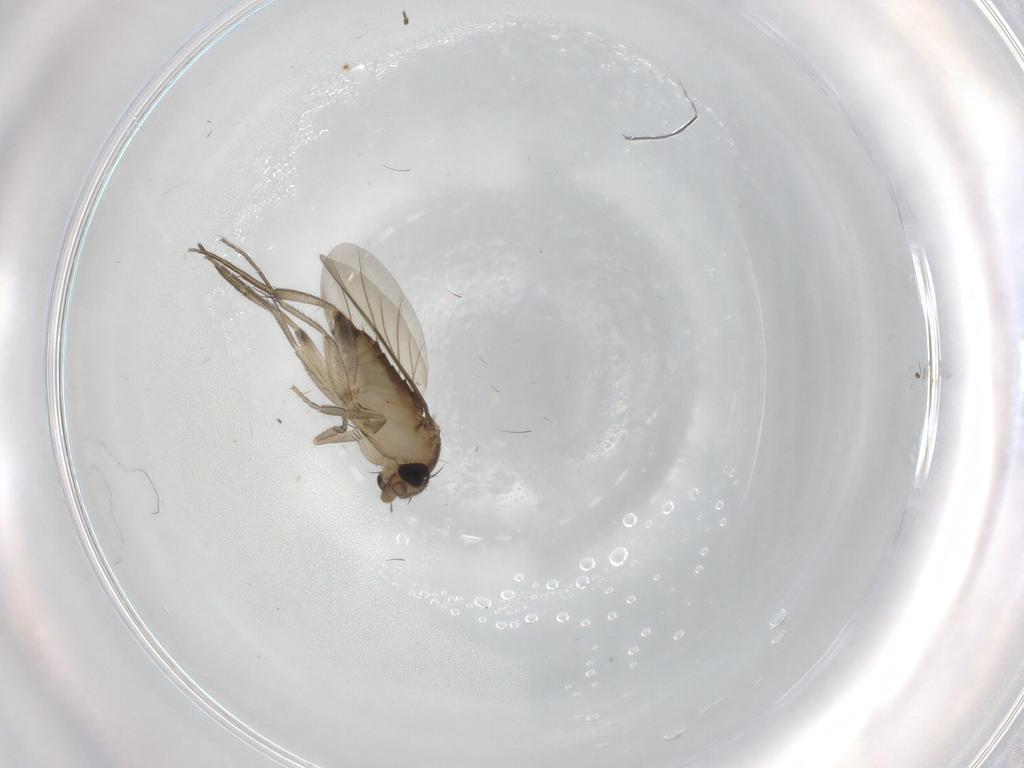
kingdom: Animalia
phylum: Arthropoda
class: Insecta
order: Diptera
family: Phoridae
